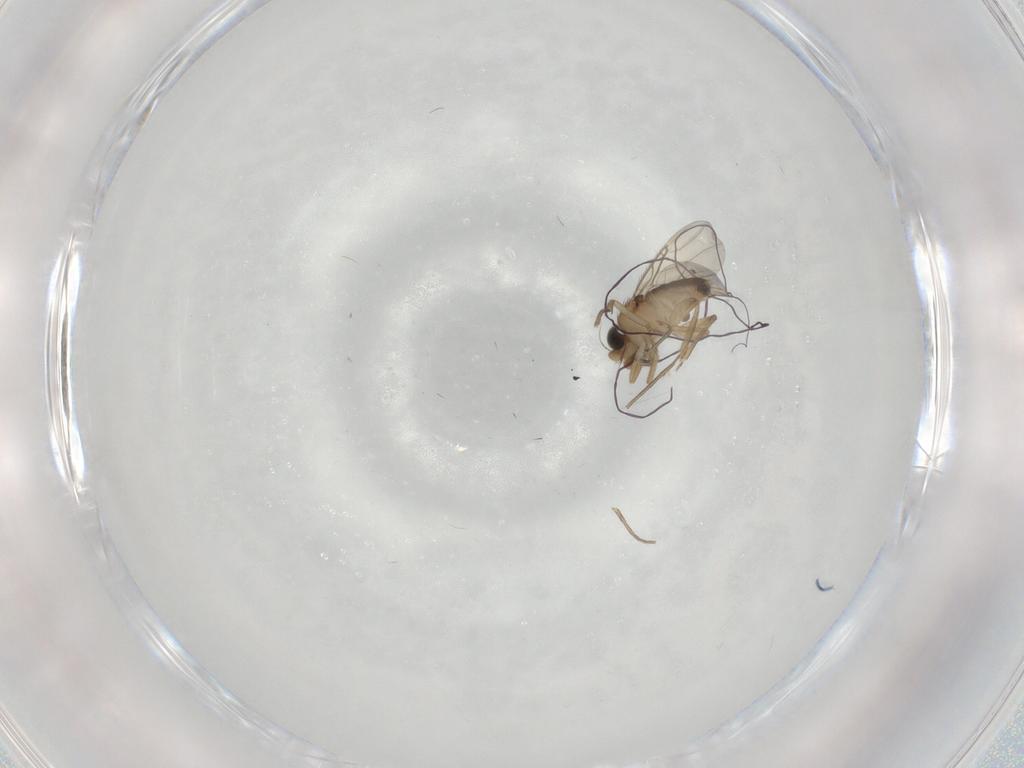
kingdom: Animalia
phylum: Arthropoda
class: Insecta
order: Diptera
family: Phoridae
